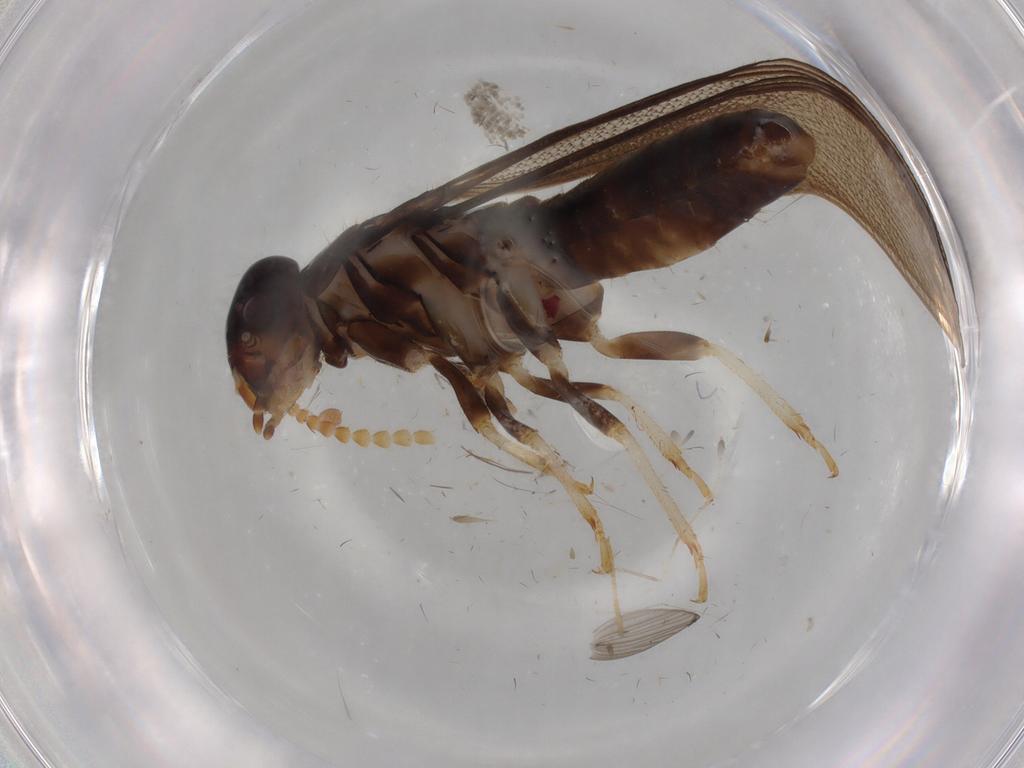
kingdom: Animalia
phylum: Arthropoda
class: Insecta
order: Blattodea
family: Kalotermitidae
